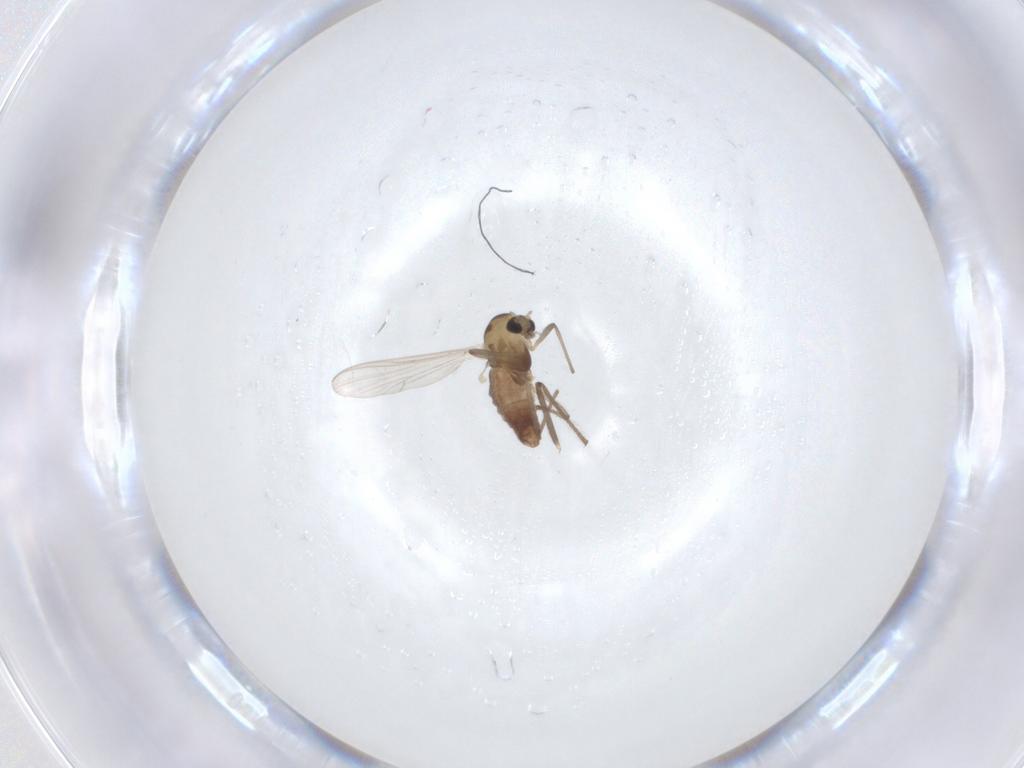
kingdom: Animalia
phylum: Arthropoda
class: Insecta
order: Diptera
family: Chironomidae
